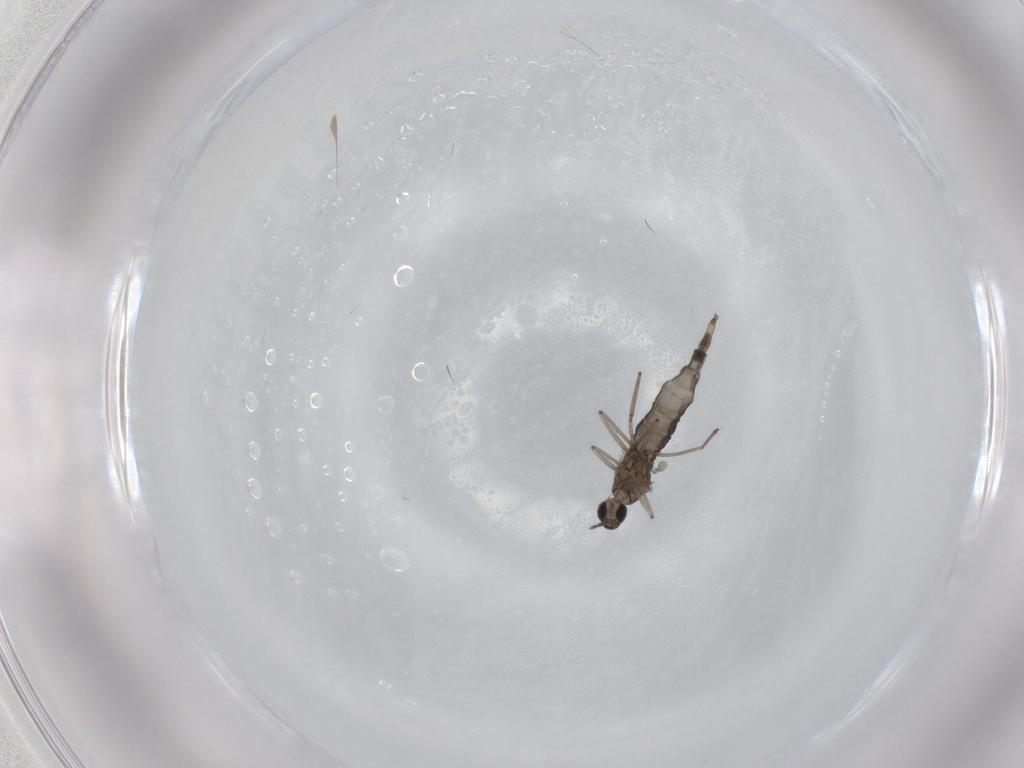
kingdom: Animalia
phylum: Arthropoda
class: Insecta
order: Diptera
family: Cecidomyiidae
